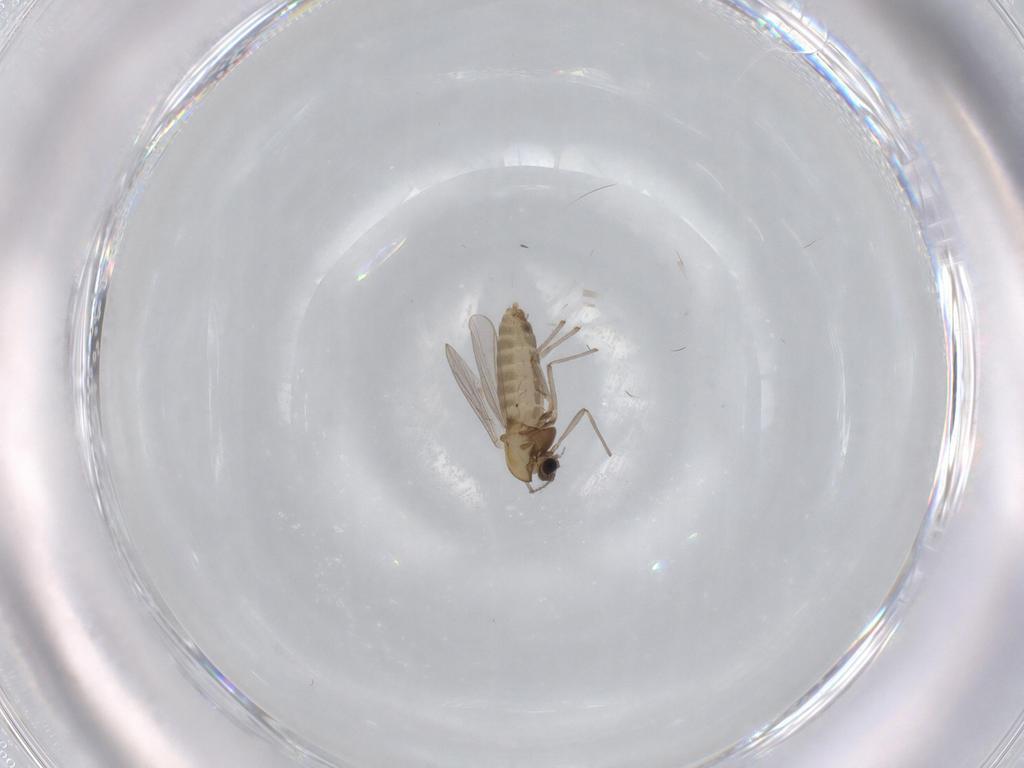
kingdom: Animalia
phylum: Arthropoda
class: Insecta
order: Diptera
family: Chironomidae
